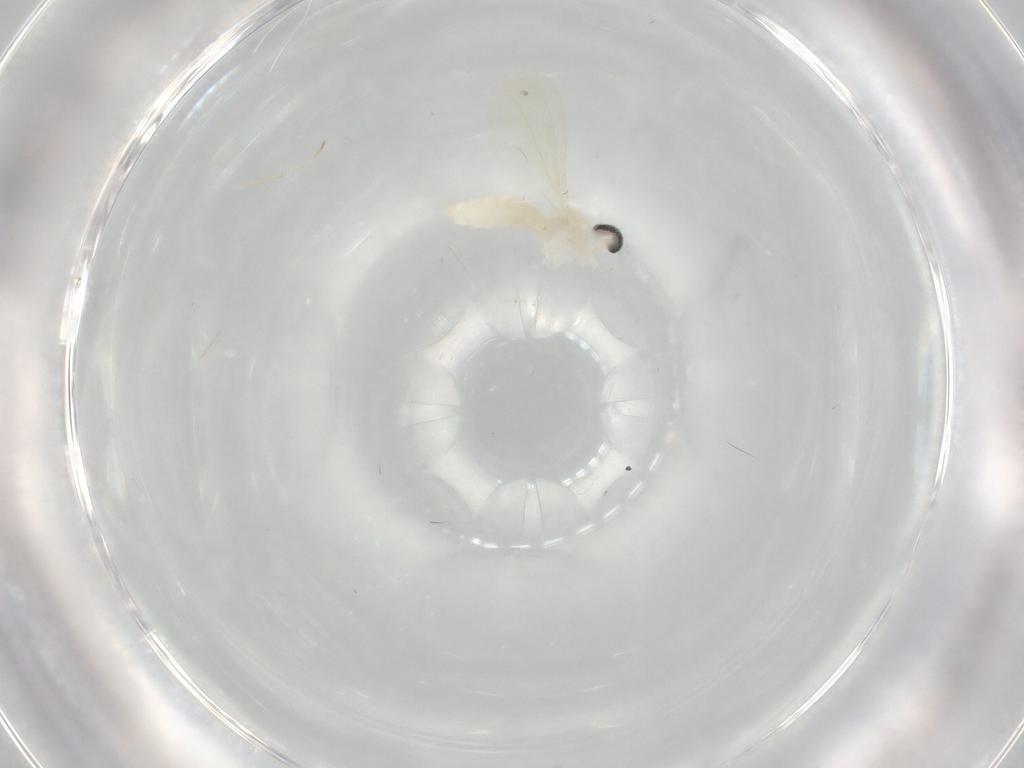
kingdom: Animalia
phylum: Arthropoda
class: Insecta
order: Diptera
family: Cecidomyiidae
